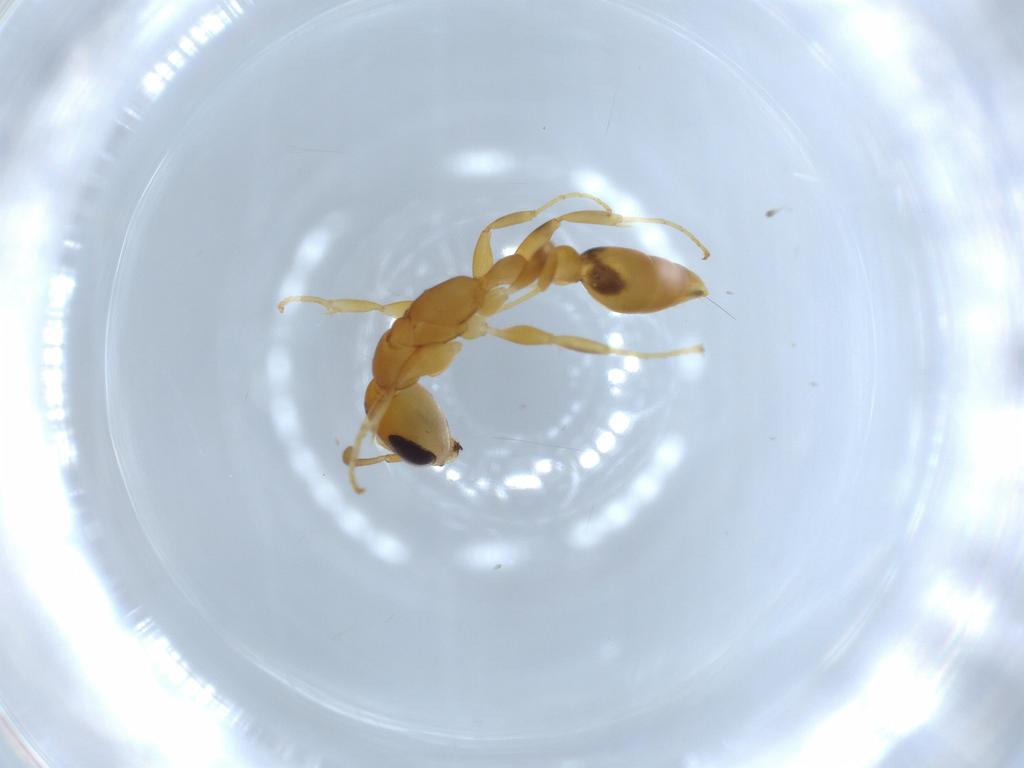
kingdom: Animalia
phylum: Arthropoda
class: Insecta
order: Hymenoptera
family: Formicidae
